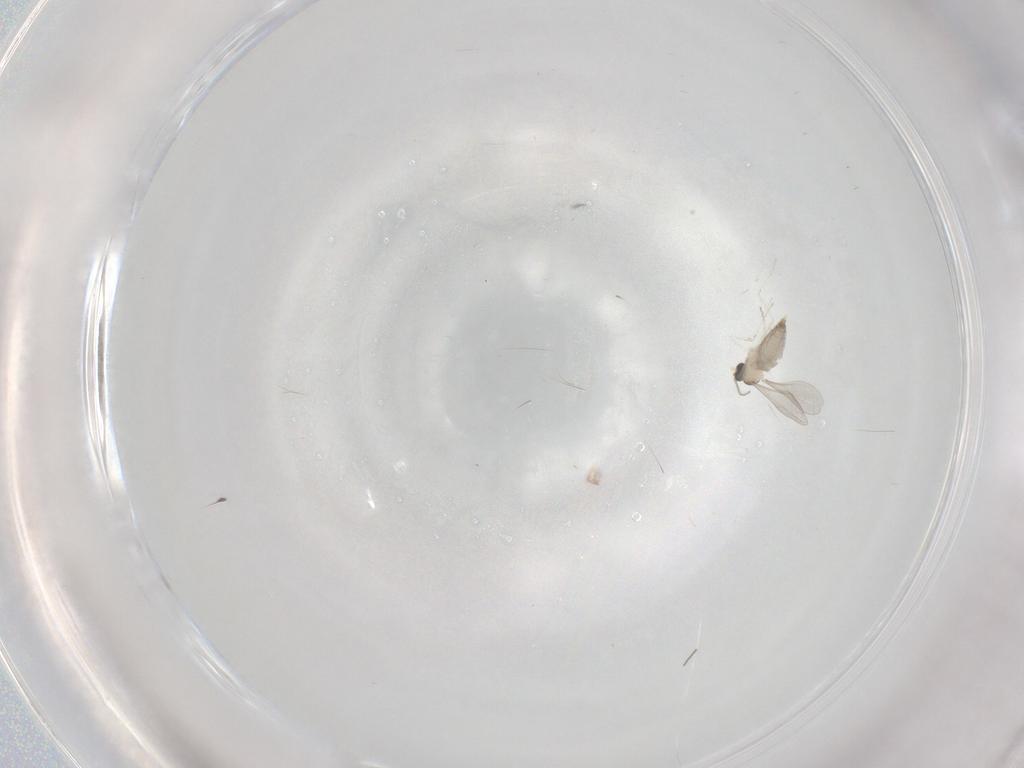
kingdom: Animalia
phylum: Arthropoda
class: Insecta
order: Diptera
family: Sciaridae
